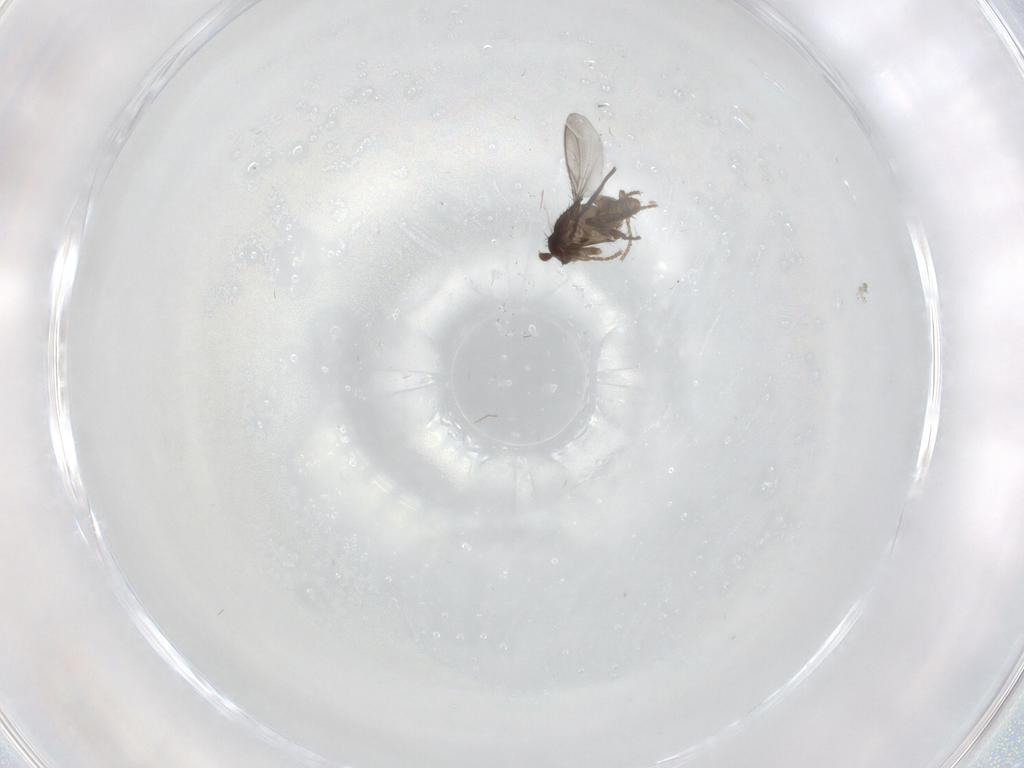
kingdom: Animalia
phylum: Arthropoda
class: Insecta
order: Diptera
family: Sphaeroceridae
